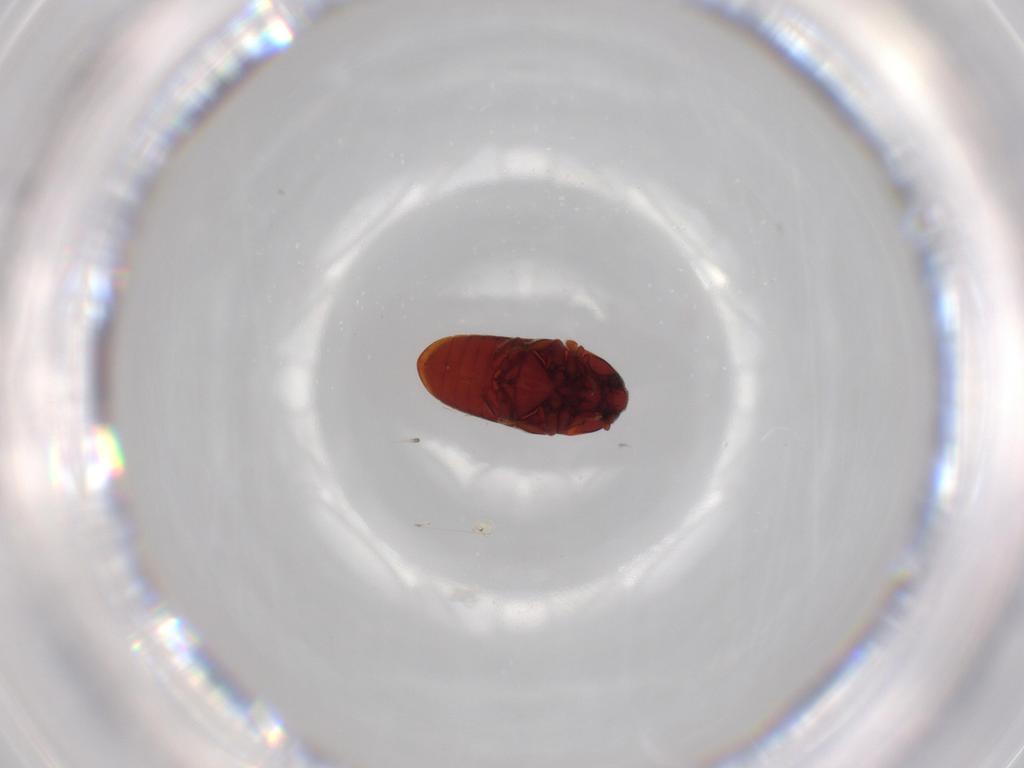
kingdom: Animalia
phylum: Arthropoda
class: Insecta
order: Coleoptera
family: Throscidae
